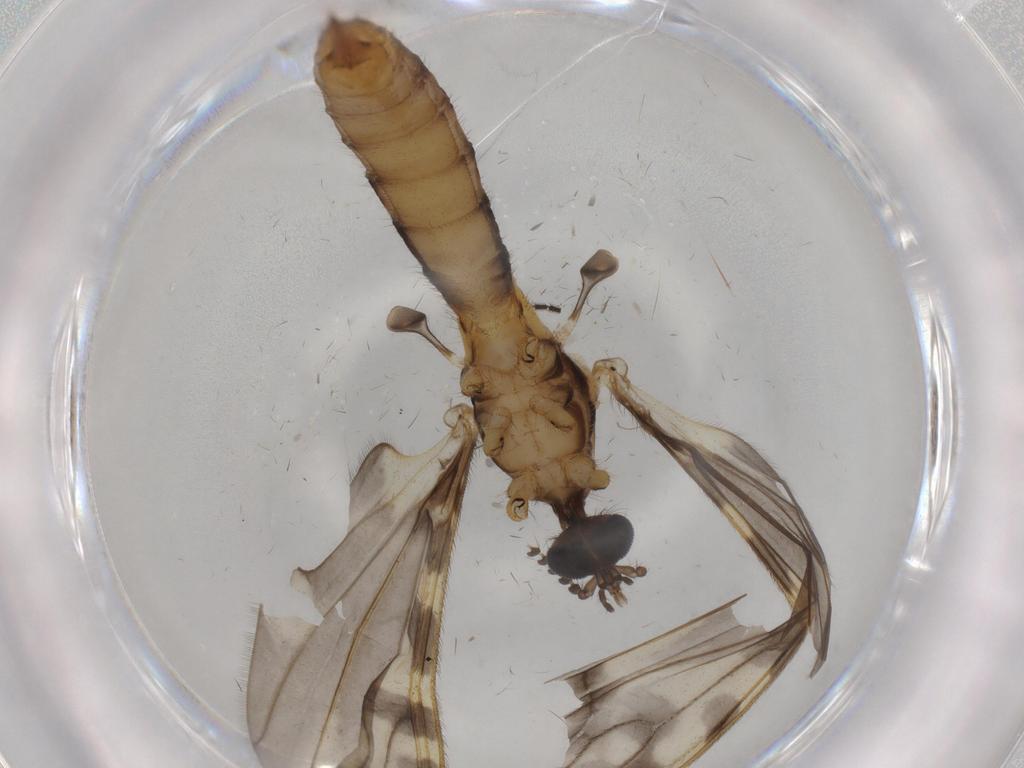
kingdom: Animalia
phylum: Arthropoda
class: Insecta
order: Diptera
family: Limoniidae
